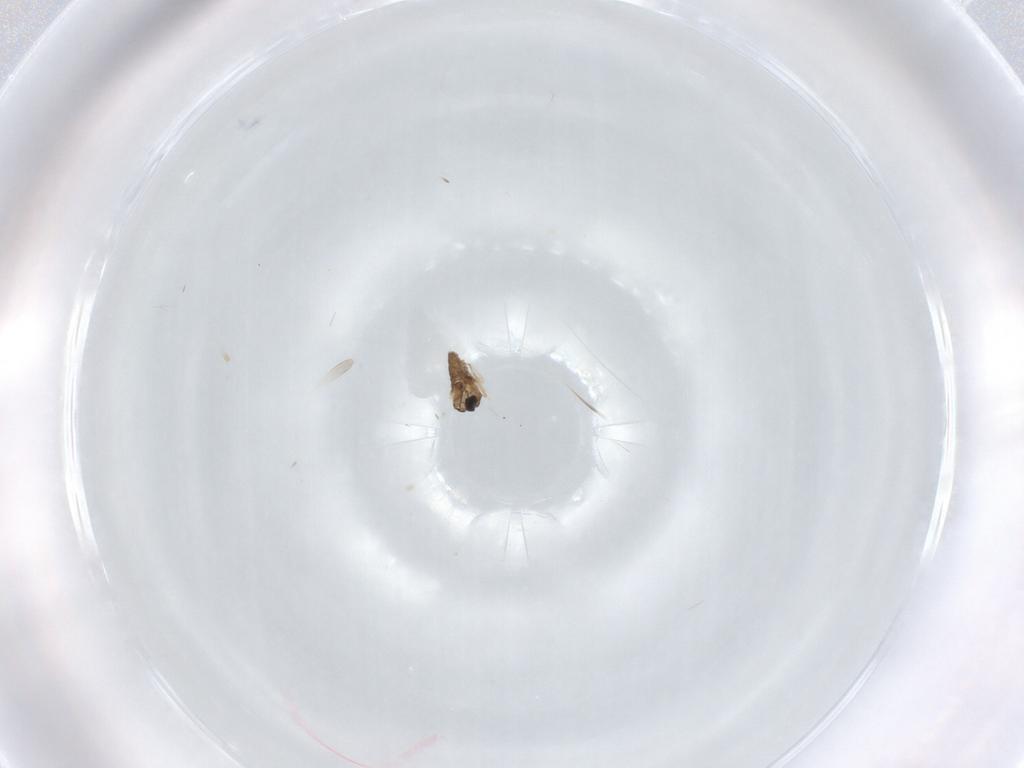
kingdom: Animalia
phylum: Arthropoda
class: Insecta
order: Diptera
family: Cecidomyiidae
